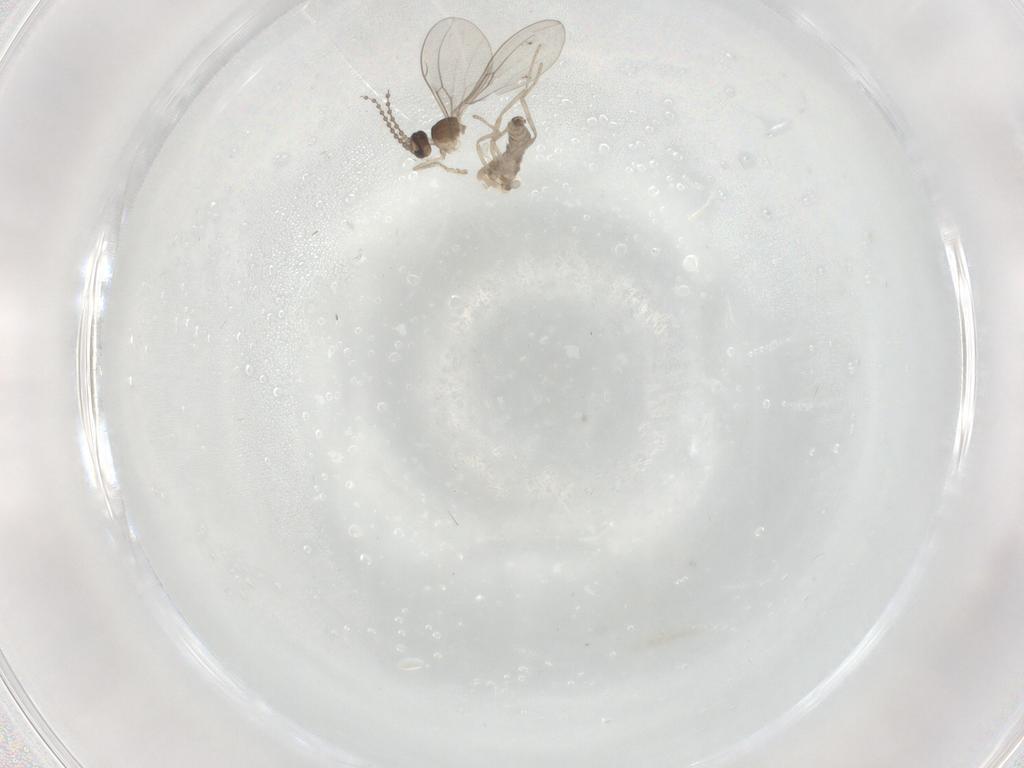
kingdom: Animalia
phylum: Arthropoda
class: Insecta
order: Diptera
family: Cecidomyiidae
